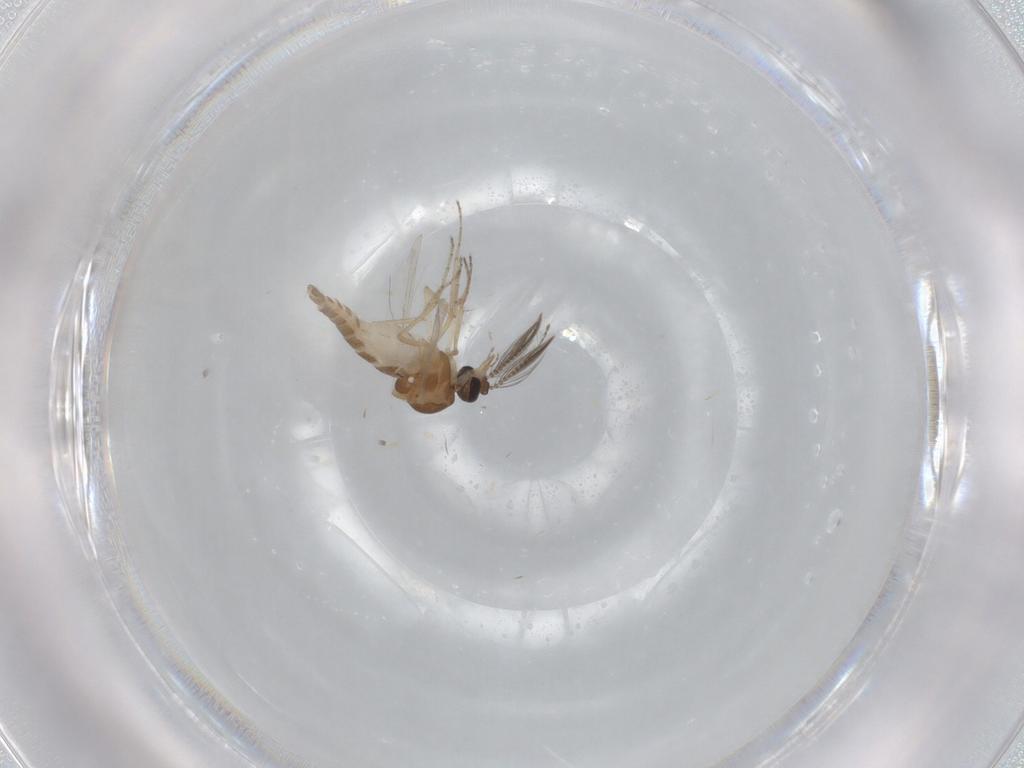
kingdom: Animalia
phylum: Arthropoda
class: Insecta
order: Diptera
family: Ceratopogonidae
